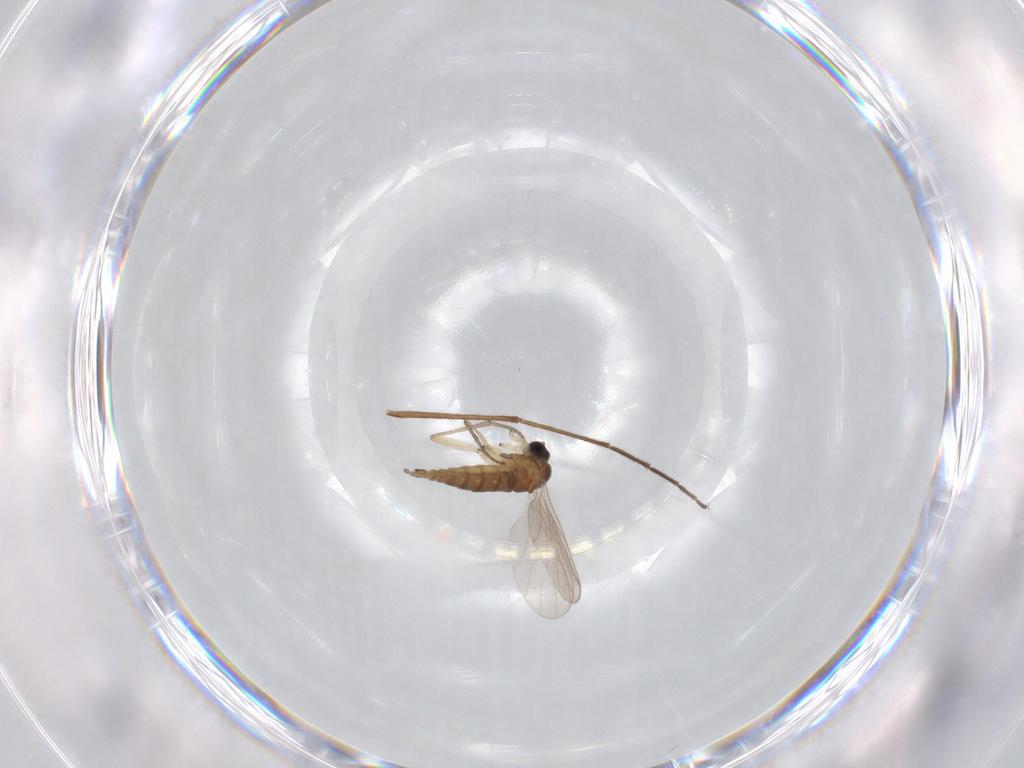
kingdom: Animalia
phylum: Arthropoda
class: Insecta
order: Diptera
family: Sciaridae
